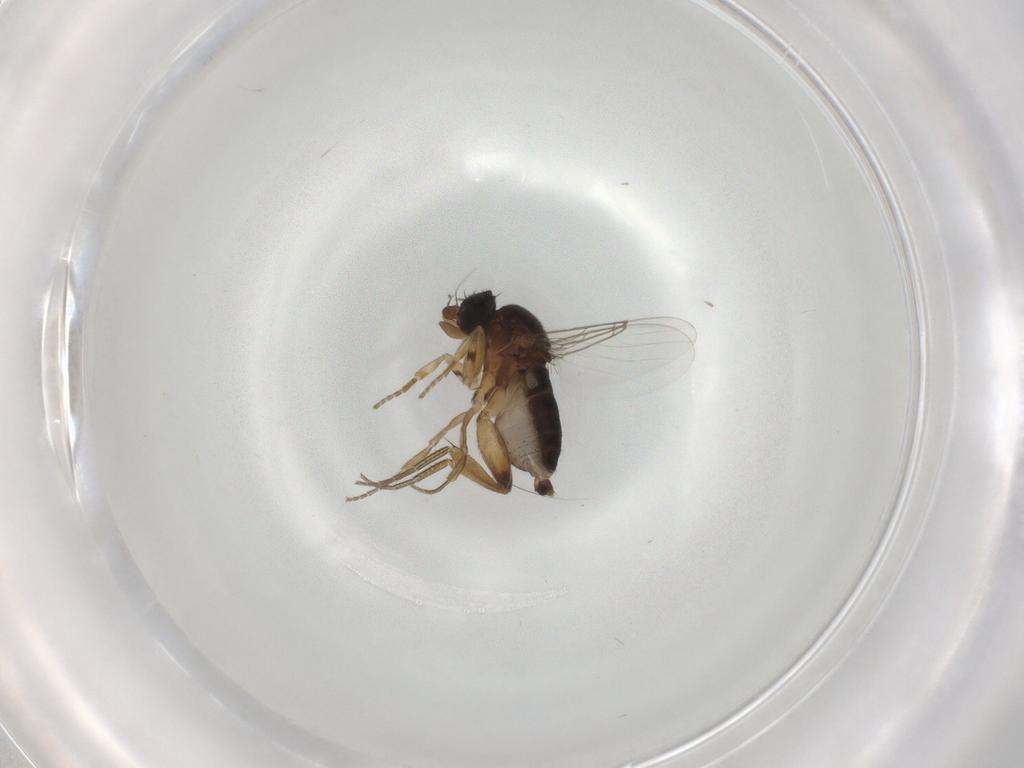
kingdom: Animalia
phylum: Arthropoda
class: Insecta
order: Diptera
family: Phoridae
